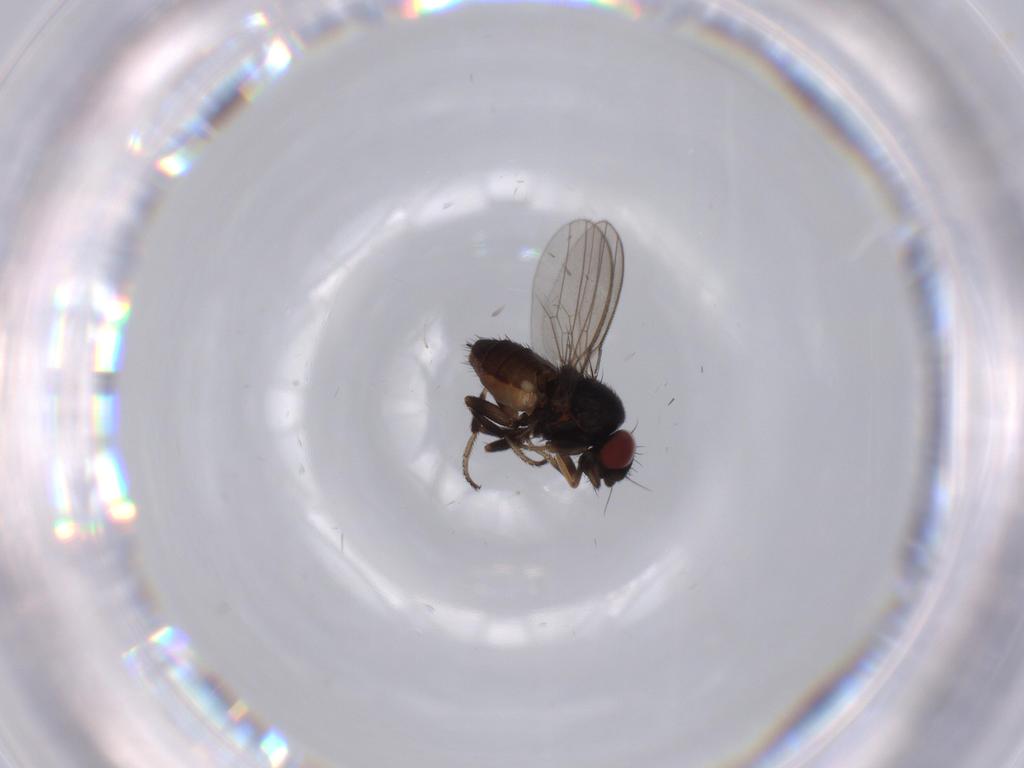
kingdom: Animalia
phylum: Arthropoda
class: Insecta
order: Diptera
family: Milichiidae
